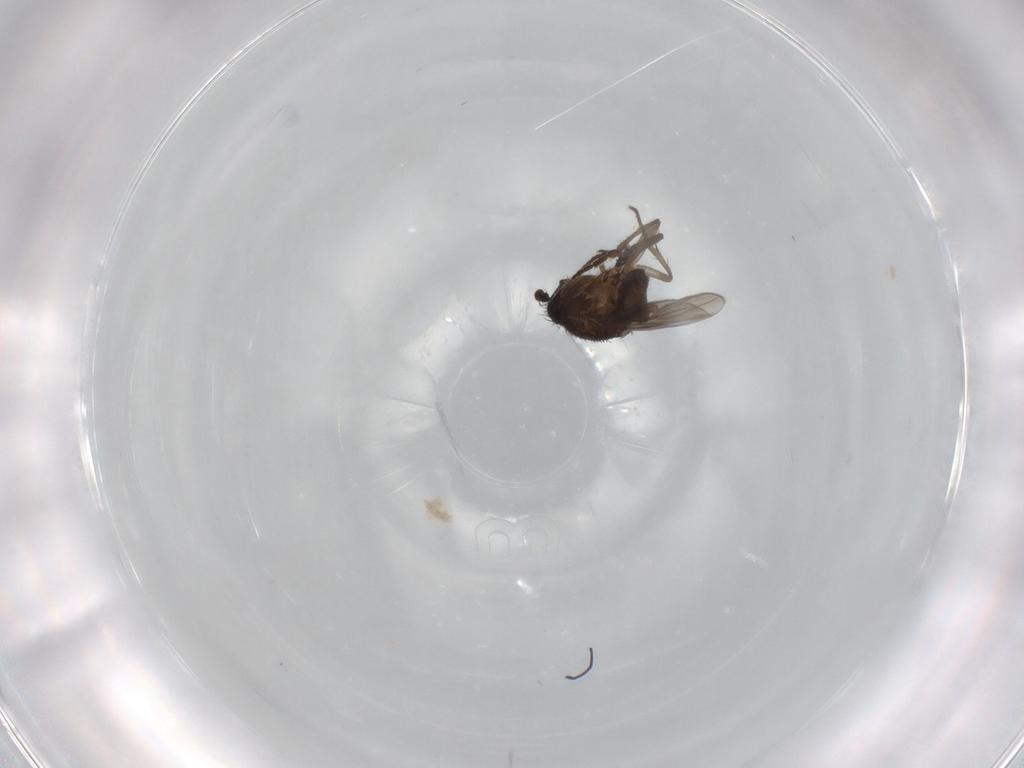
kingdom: Animalia
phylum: Arthropoda
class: Insecta
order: Diptera
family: Sphaeroceridae
